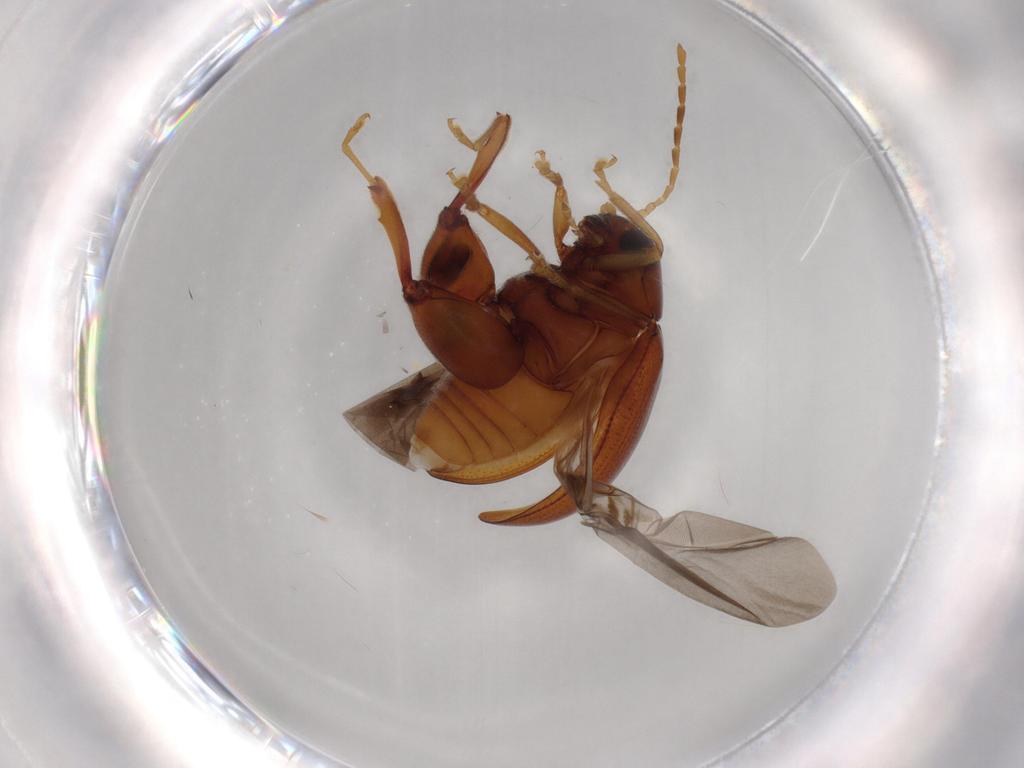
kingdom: Animalia
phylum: Arthropoda
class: Insecta
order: Coleoptera
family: Chrysomelidae
